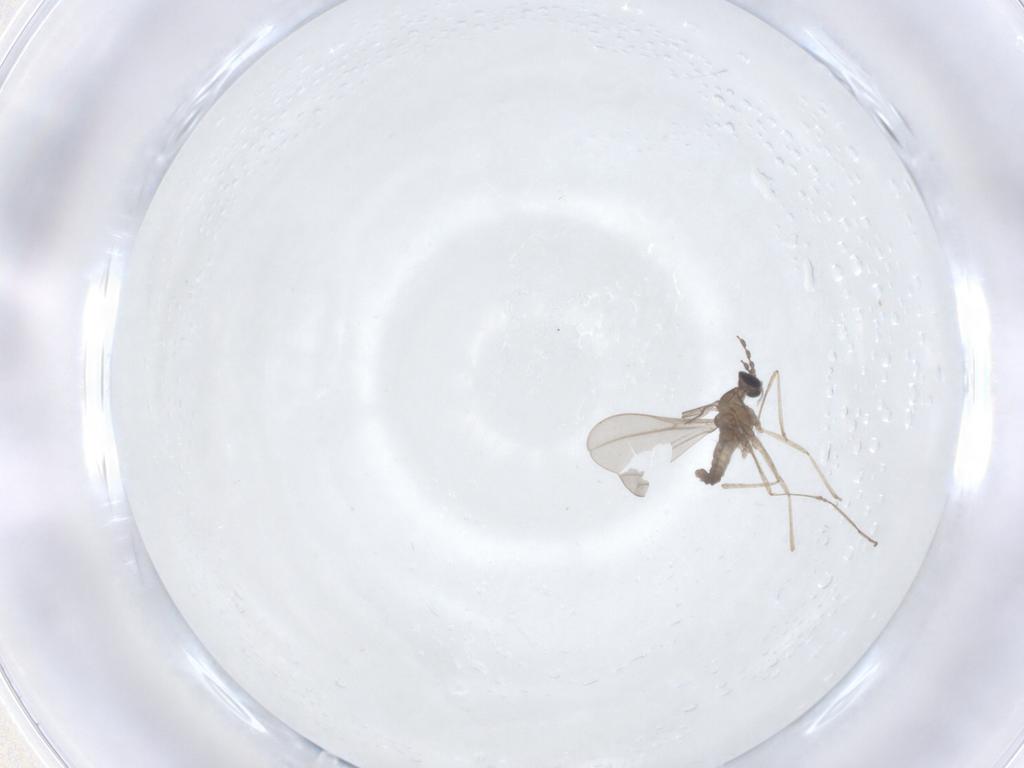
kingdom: Animalia
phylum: Arthropoda
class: Insecta
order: Diptera
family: Cecidomyiidae
